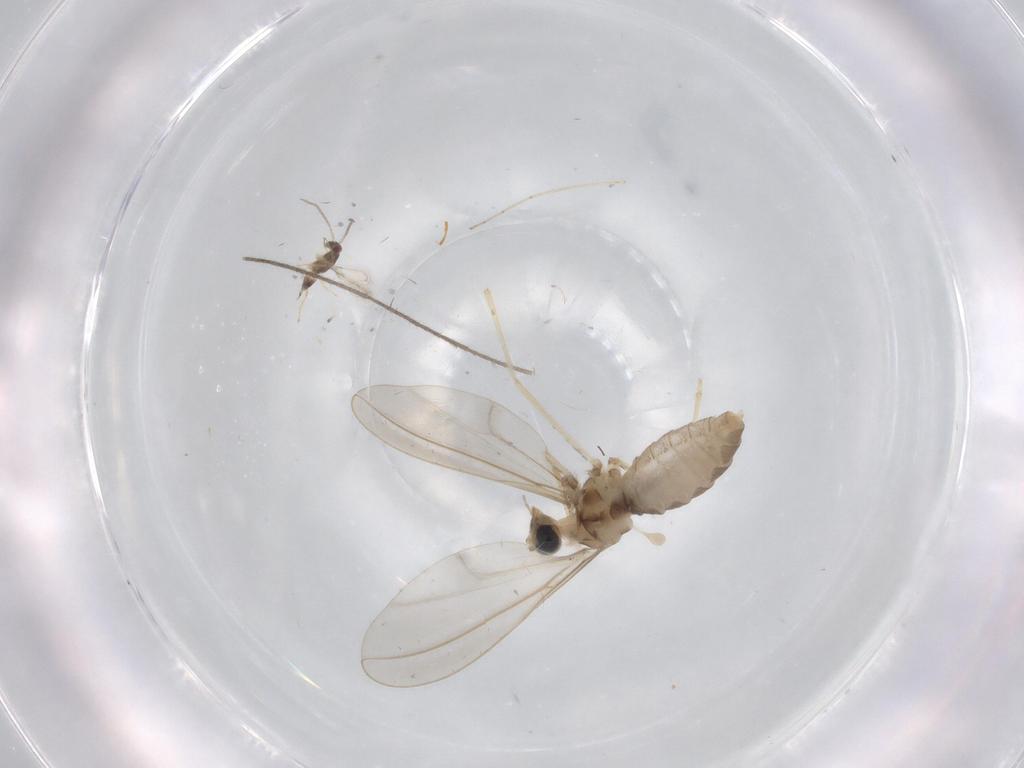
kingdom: Animalia
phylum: Arthropoda
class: Insecta
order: Diptera
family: Cecidomyiidae
